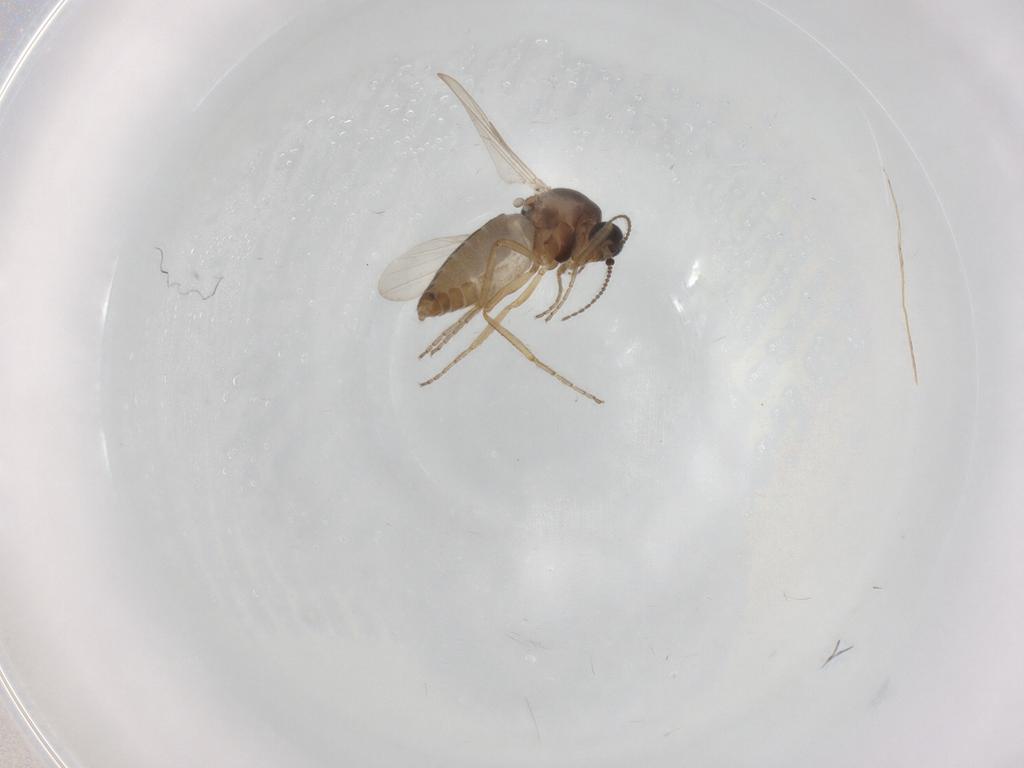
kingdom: Animalia
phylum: Arthropoda
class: Insecta
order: Diptera
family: Ceratopogonidae
